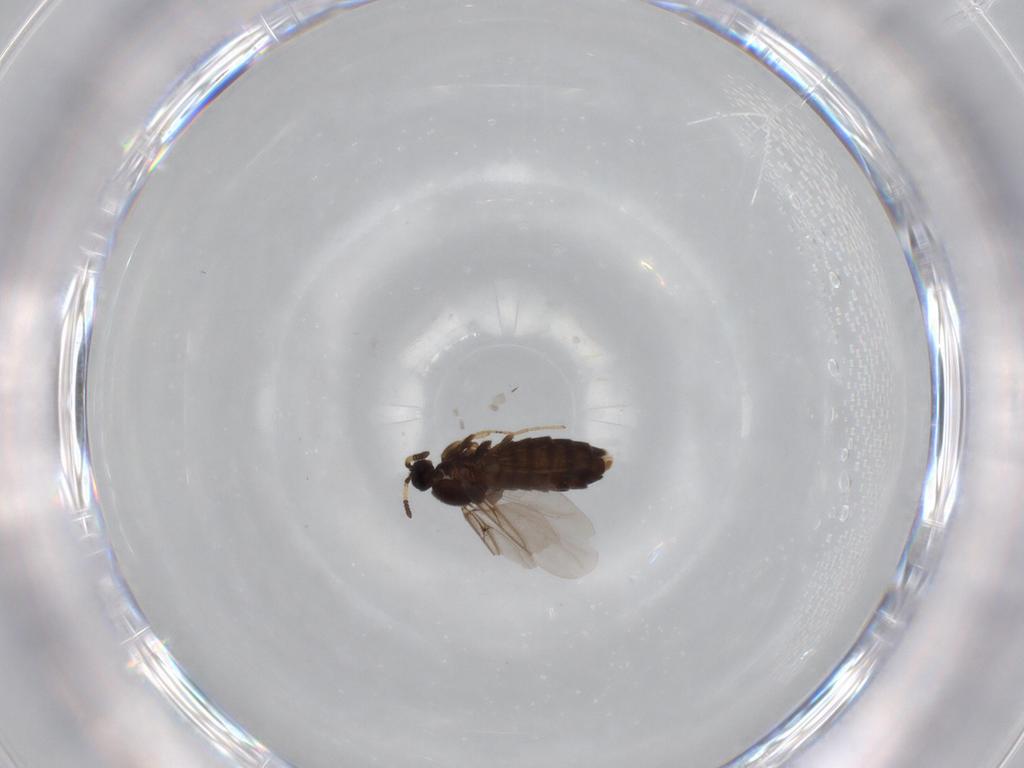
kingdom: Animalia
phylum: Arthropoda
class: Insecta
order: Diptera
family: Scatopsidae
